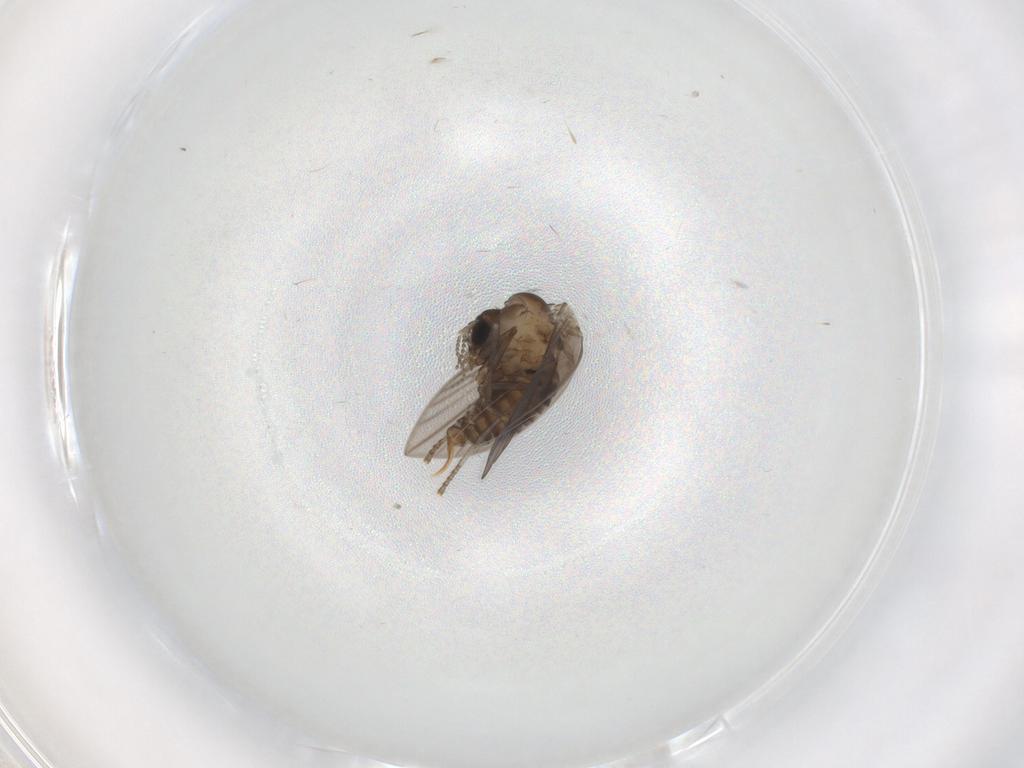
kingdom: Animalia
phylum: Arthropoda
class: Insecta
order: Diptera
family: Psychodidae
